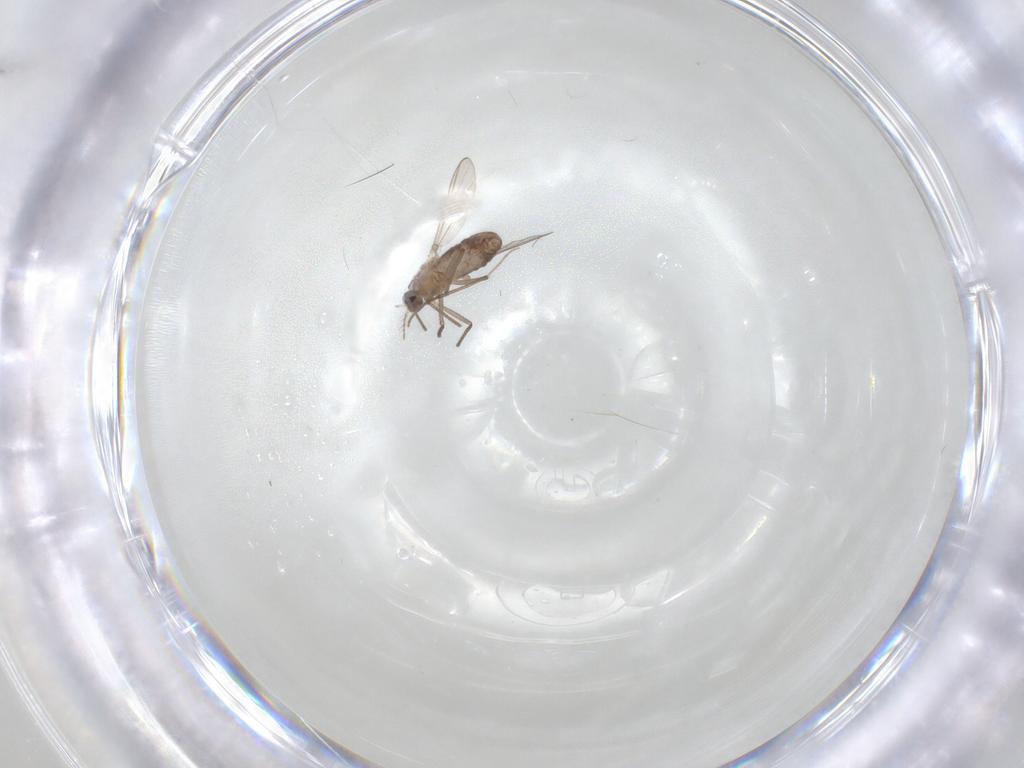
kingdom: Animalia
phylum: Arthropoda
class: Insecta
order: Diptera
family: Chironomidae
